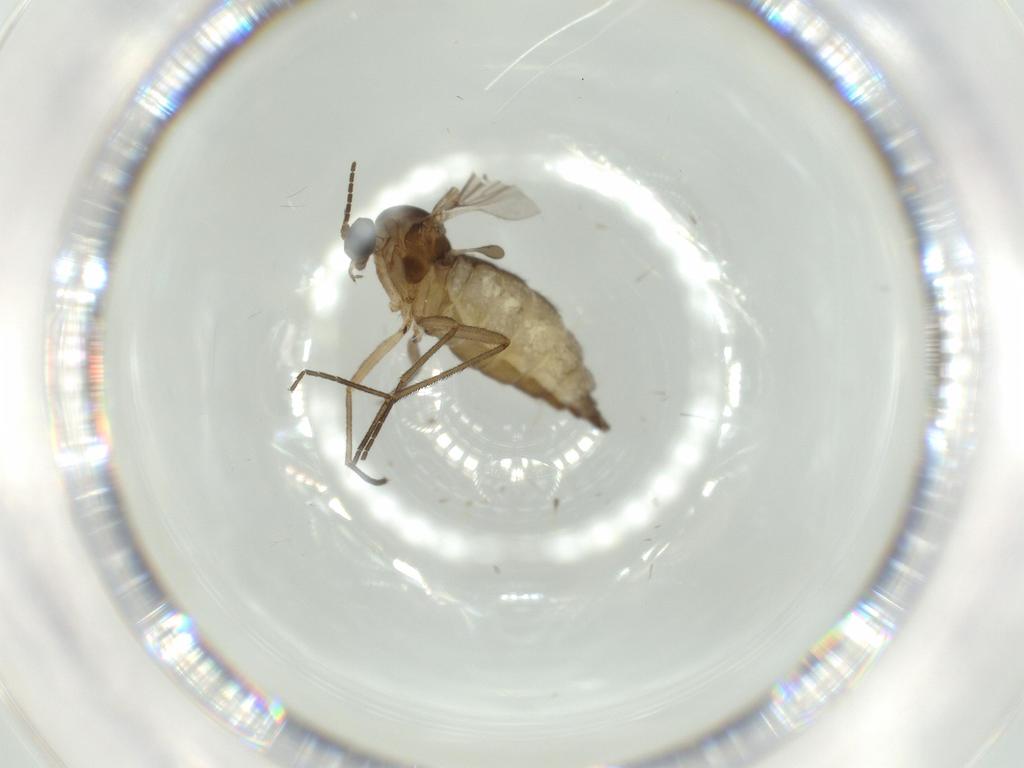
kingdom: Animalia
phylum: Arthropoda
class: Insecta
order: Diptera
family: Sciaridae
